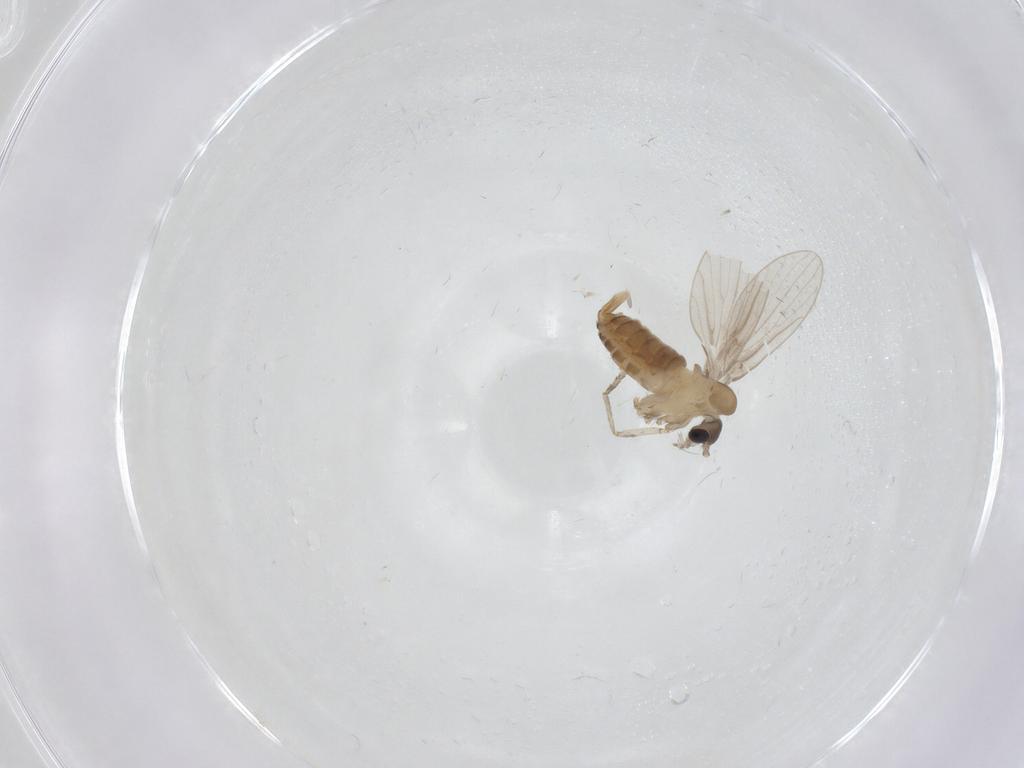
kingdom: Animalia
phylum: Arthropoda
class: Insecta
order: Diptera
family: Psychodidae
